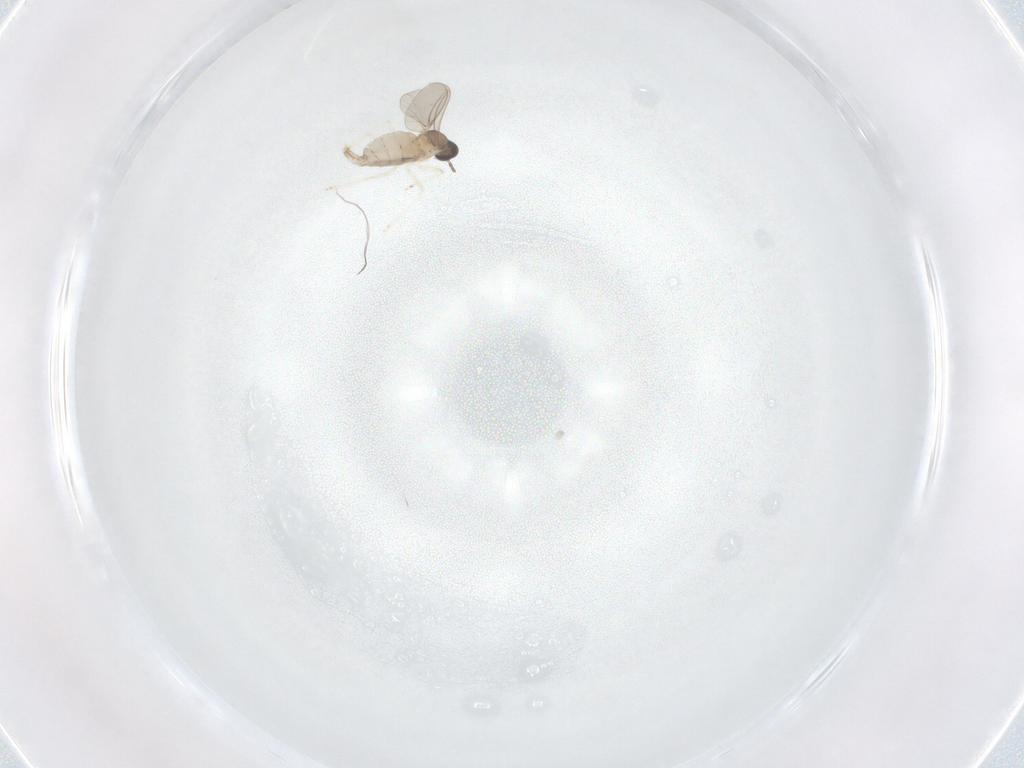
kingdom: Animalia
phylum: Arthropoda
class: Insecta
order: Diptera
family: Cecidomyiidae
